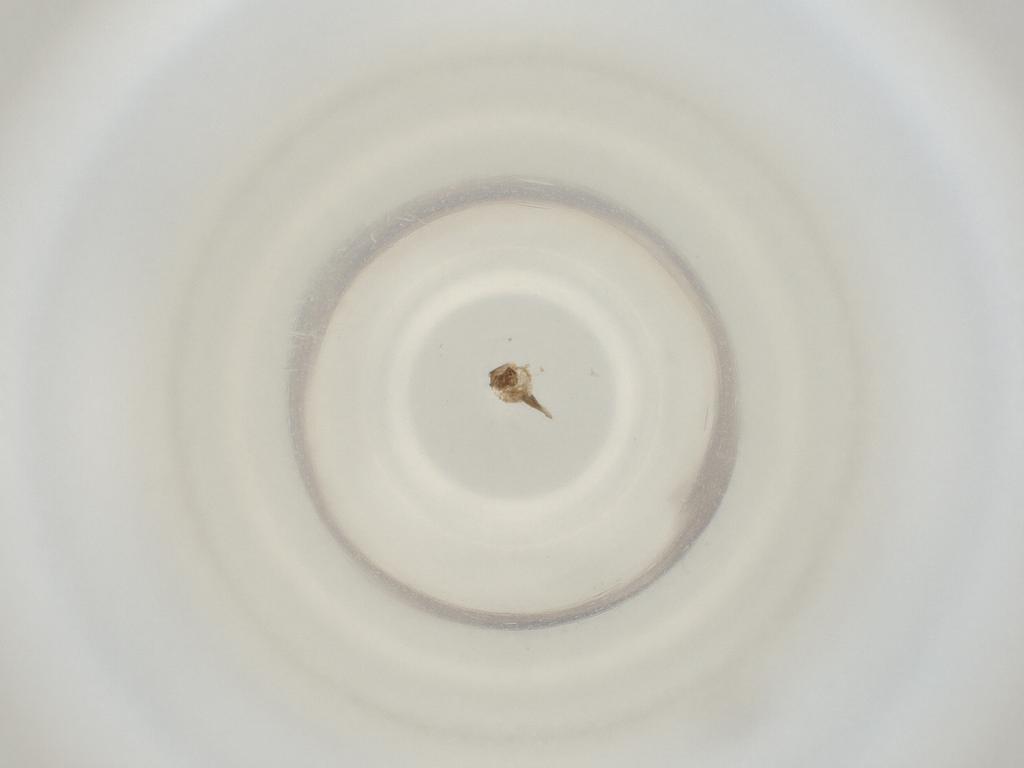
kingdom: Animalia
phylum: Arthropoda
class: Insecta
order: Diptera
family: Cecidomyiidae
